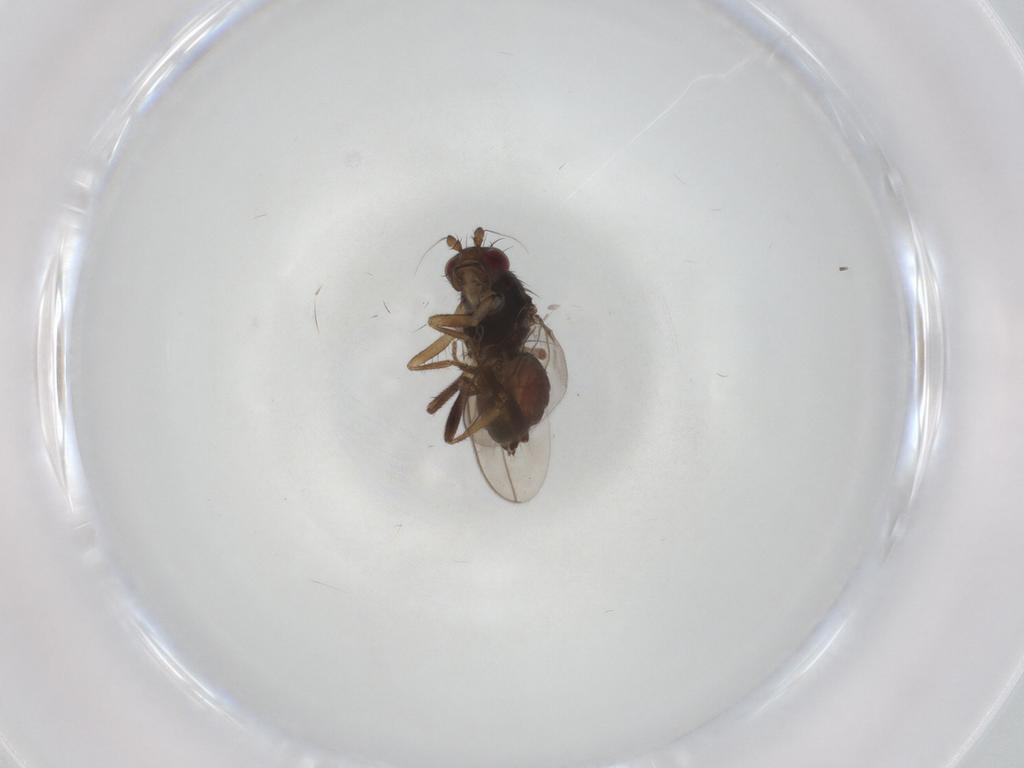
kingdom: Animalia
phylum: Arthropoda
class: Insecta
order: Diptera
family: Sphaeroceridae
